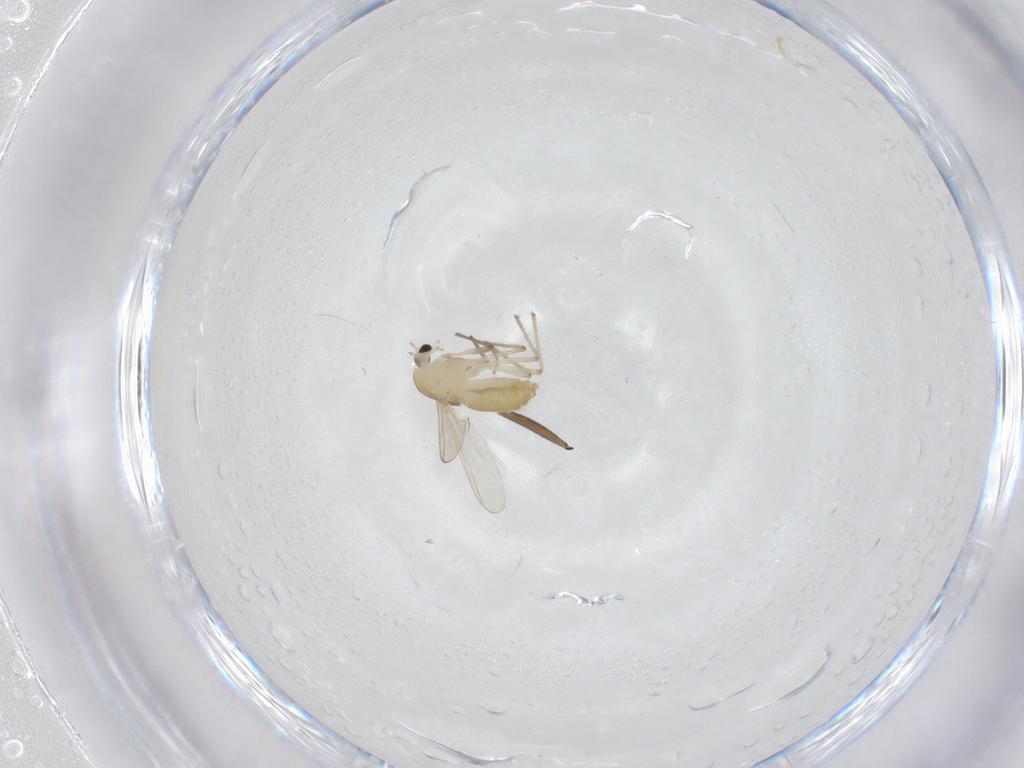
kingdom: Animalia
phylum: Arthropoda
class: Insecta
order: Diptera
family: Chironomidae
